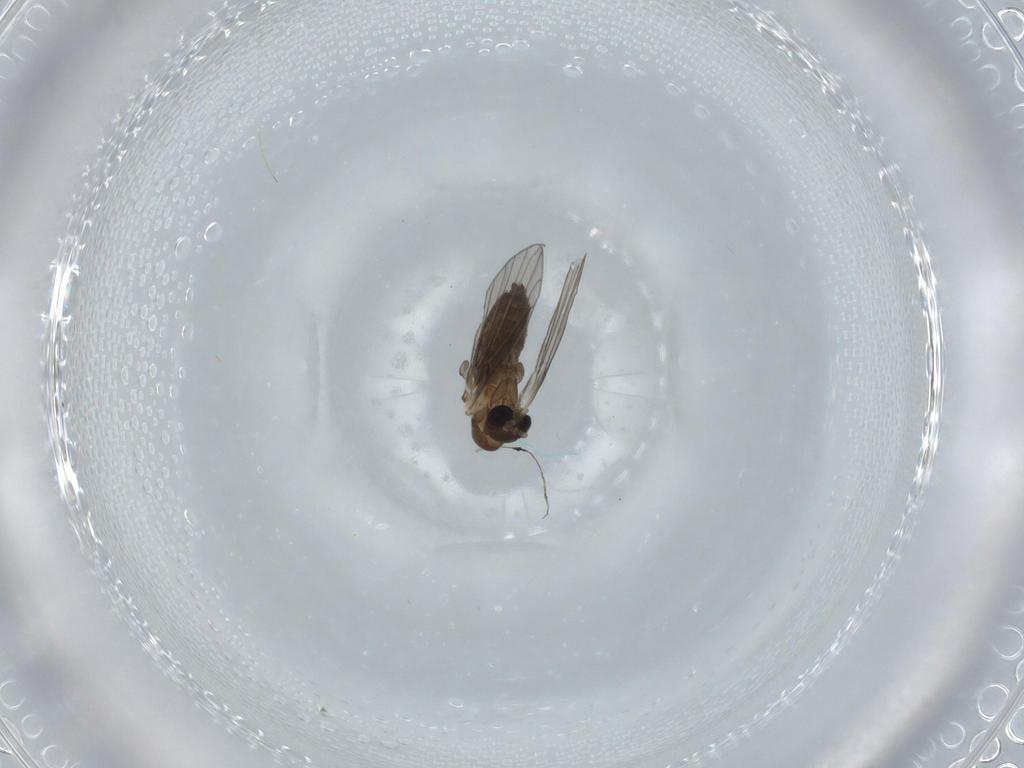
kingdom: Animalia
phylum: Arthropoda
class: Insecta
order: Diptera
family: Psychodidae
